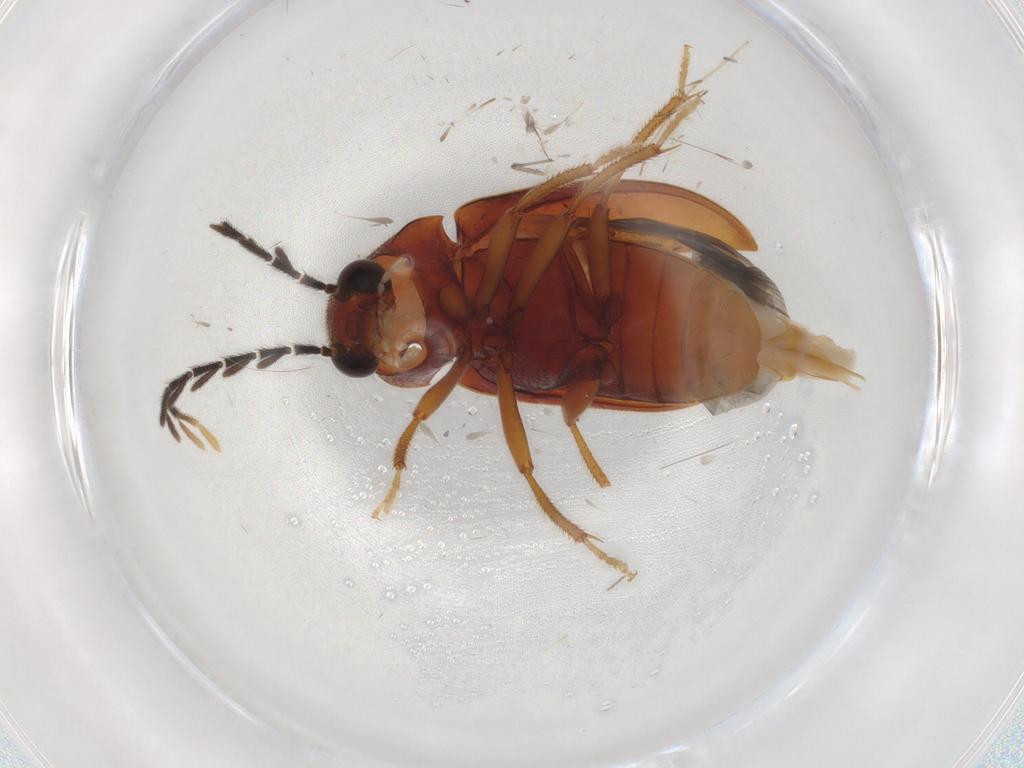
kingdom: Animalia
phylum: Arthropoda
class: Insecta
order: Coleoptera
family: Ptilodactylidae
